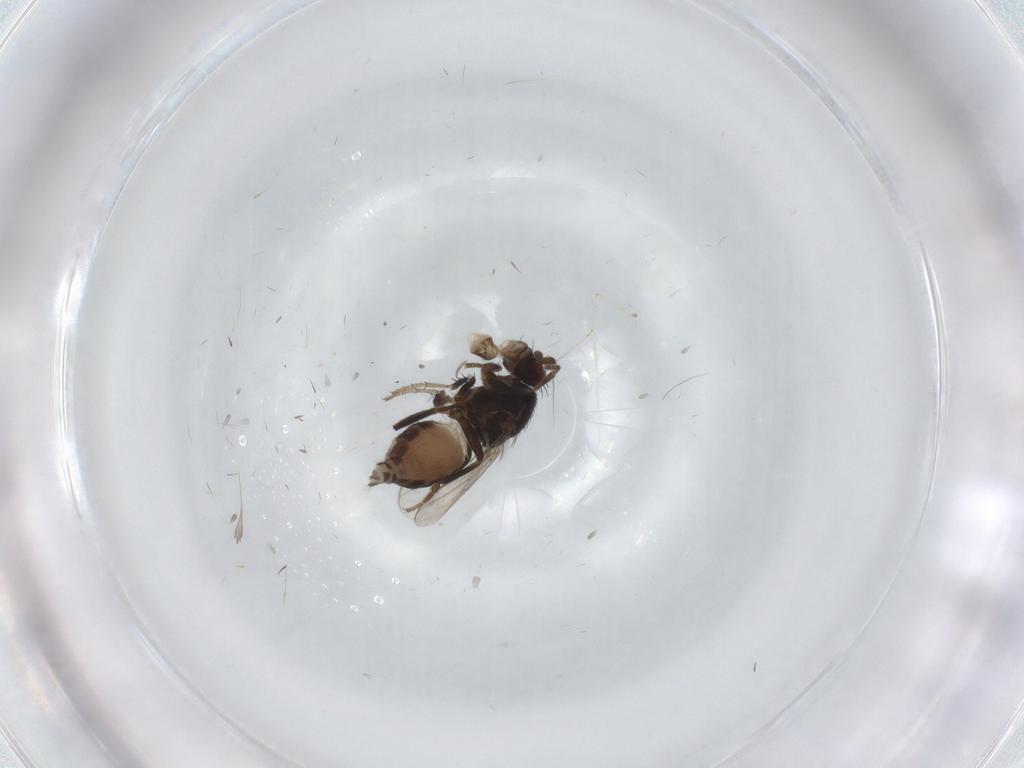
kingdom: Animalia
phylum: Arthropoda
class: Insecta
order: Diptera
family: Sphaeroceridae
